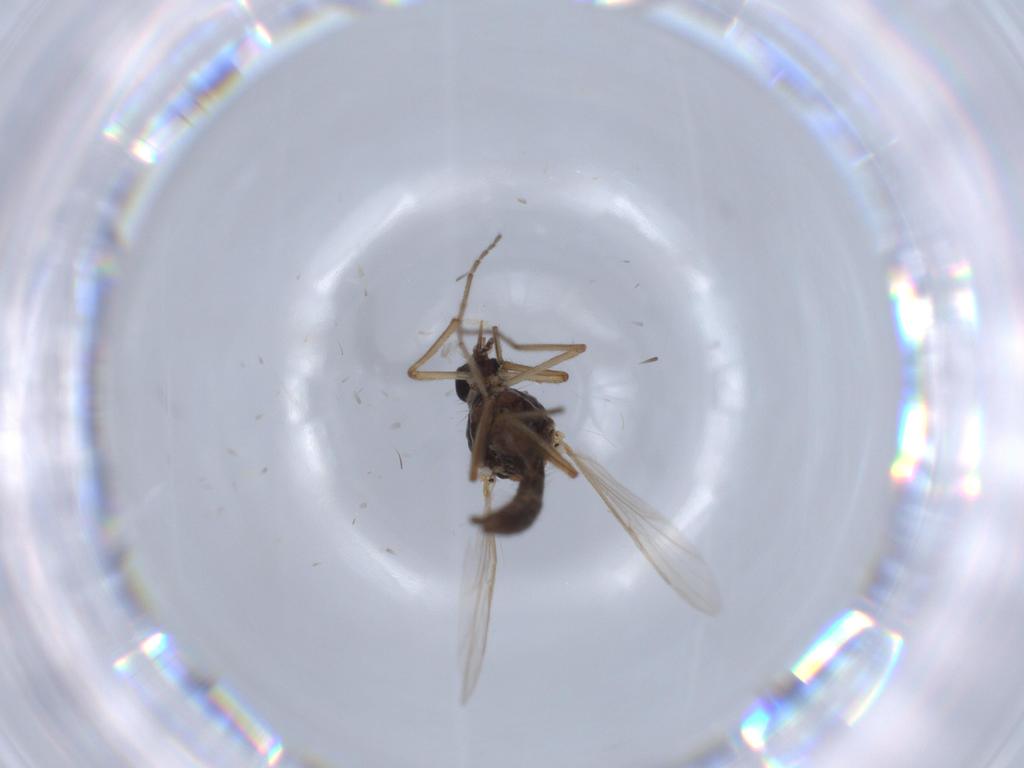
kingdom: Animalia
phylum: Arthropoda
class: Insecta
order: Diptera
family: Ceratopogonidae
